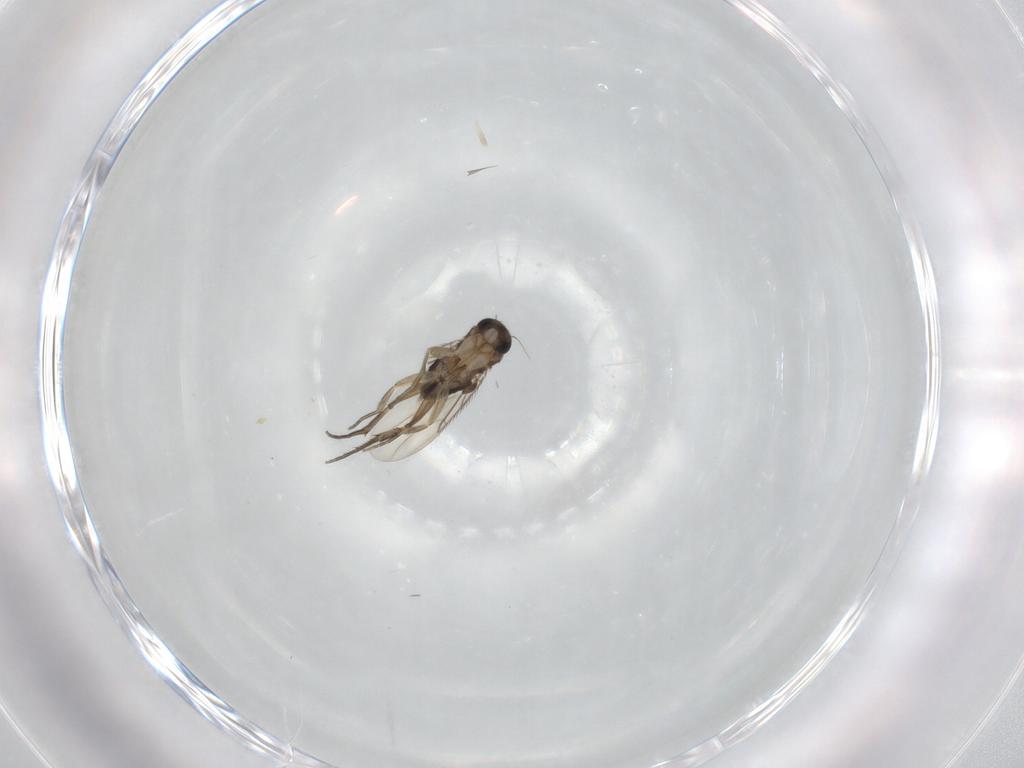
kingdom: Animalia
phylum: Arthropoda
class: Insecta
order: Diptera
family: Phoridae
